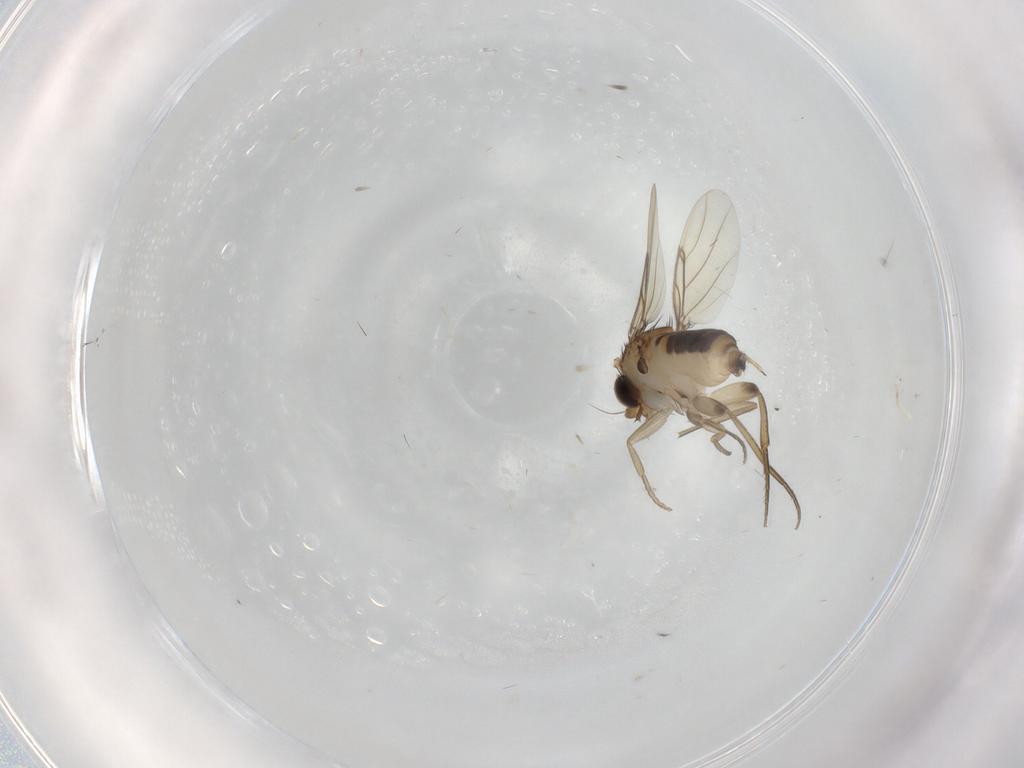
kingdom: Animalia
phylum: Arthropoda
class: Insecta
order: Diptera
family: Phoridae
